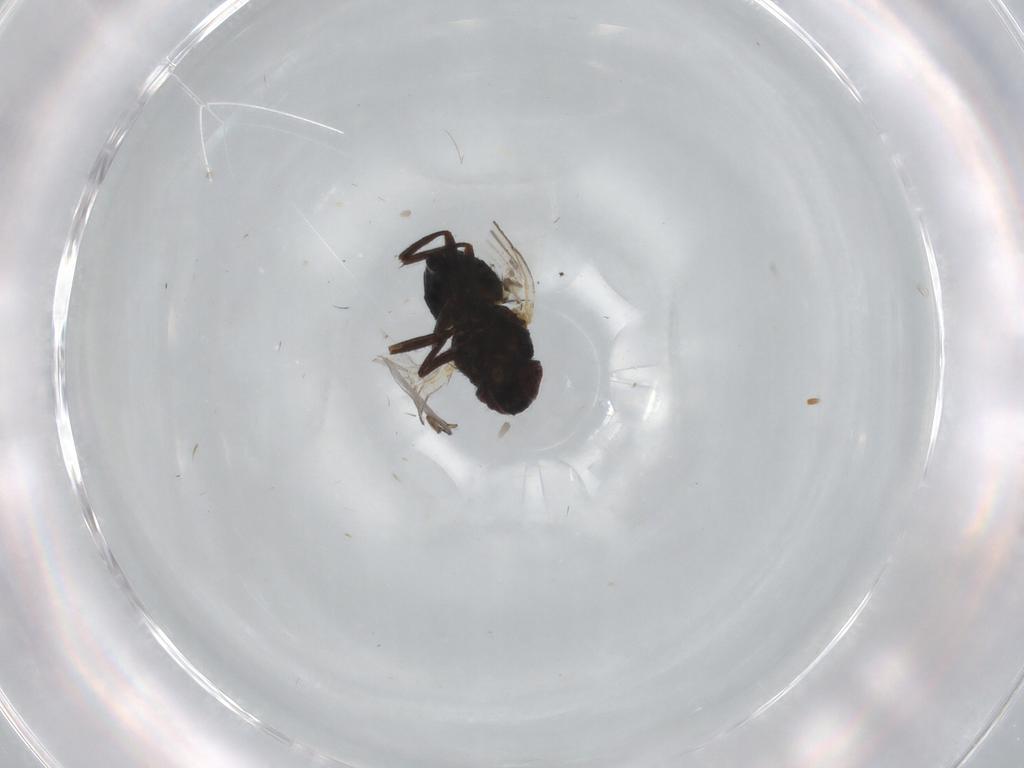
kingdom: Animalia
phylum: Arthropoda
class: Insecta
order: Diptera
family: Agromyzidae
